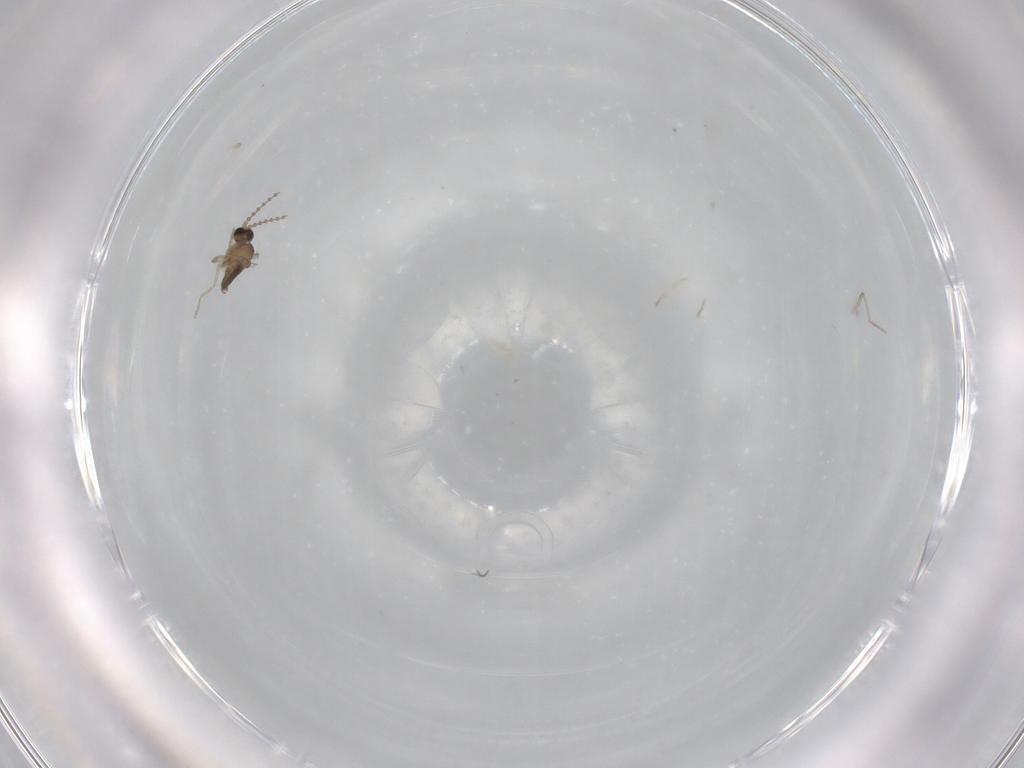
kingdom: Animalia
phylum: Arthropoda
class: Insecta
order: Diptera
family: Cecidomyiidae
